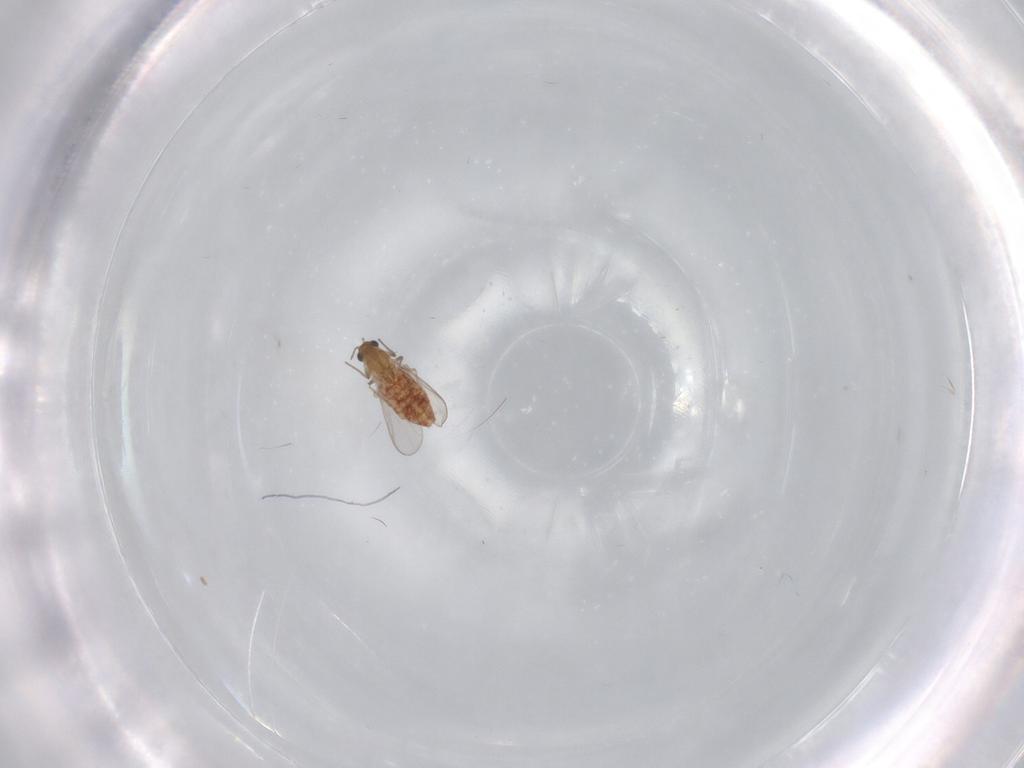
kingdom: Animalia
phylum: Arthropoda
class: Insecta
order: Diptera
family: Chironomidae
